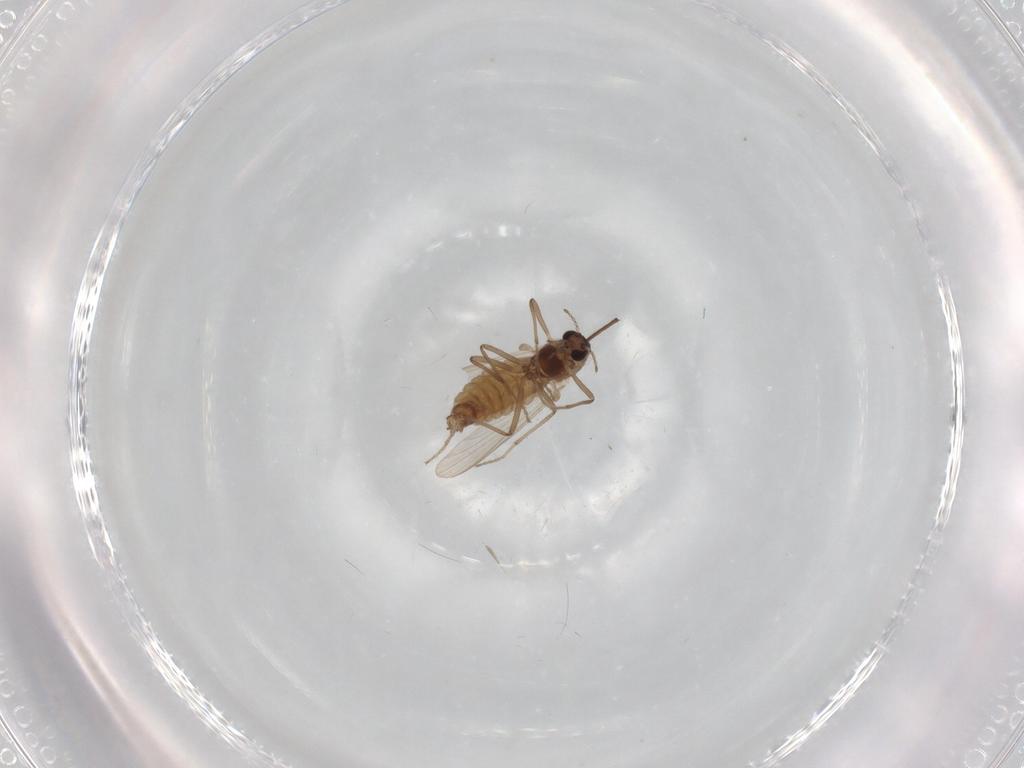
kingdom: Animalia
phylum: Arthropoda
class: Insecta
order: Diptera
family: Chironomidae
